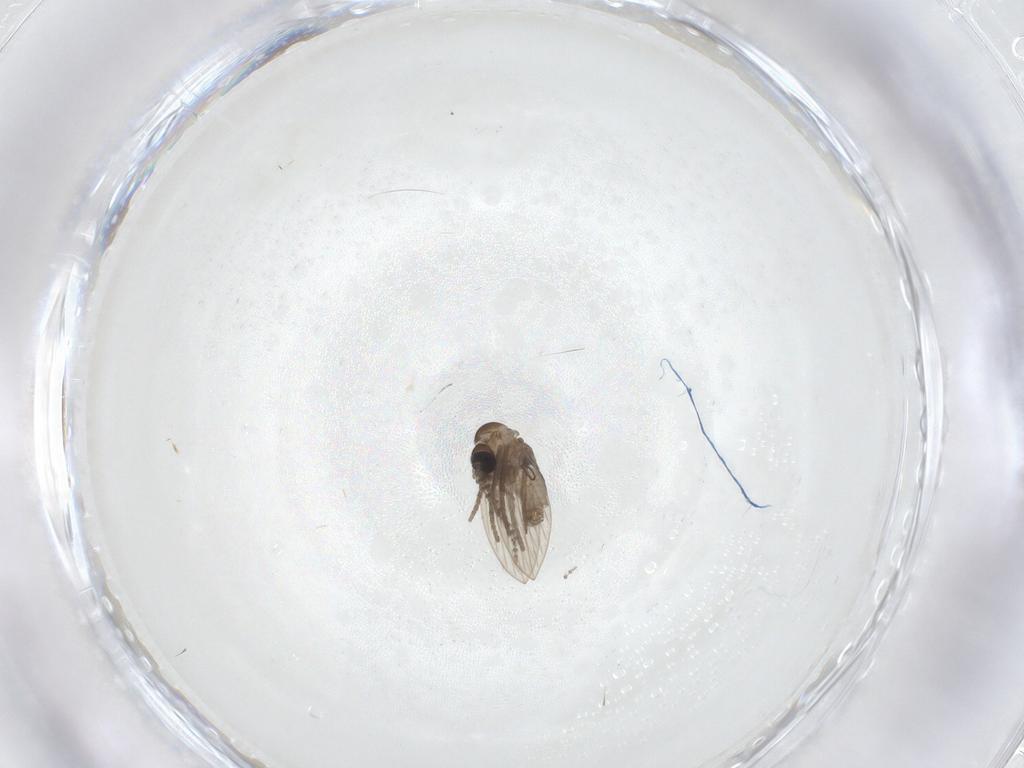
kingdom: Animalia
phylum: Arthropoda
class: Insecta
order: Diptera
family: Psychodidae
